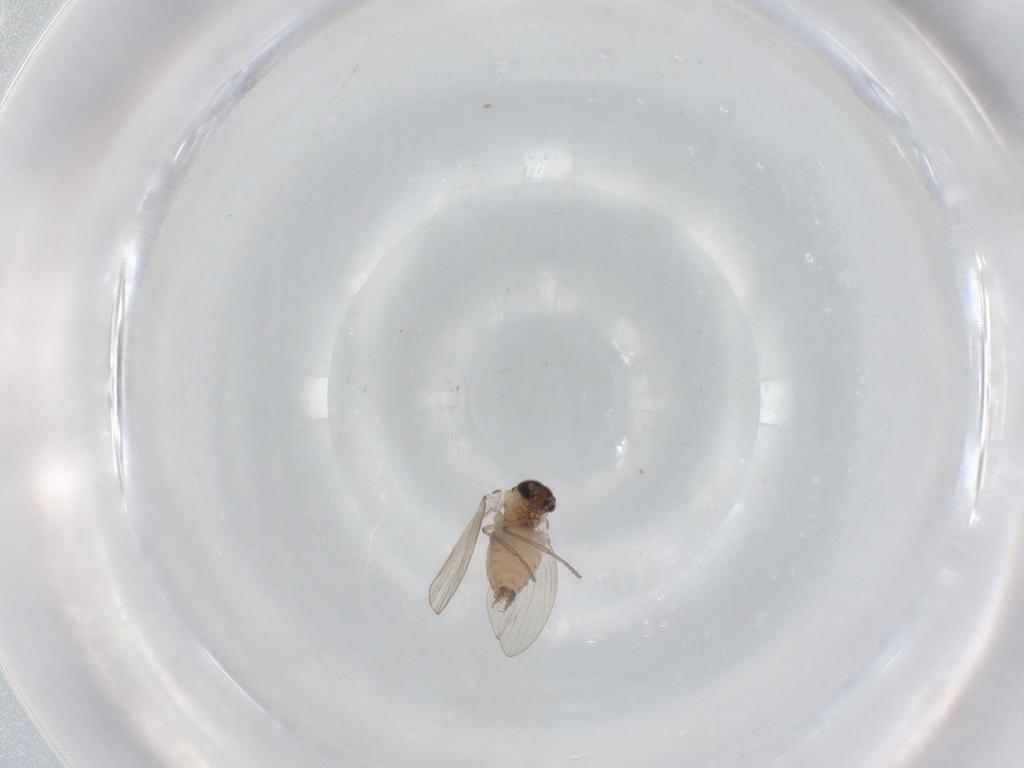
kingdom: Animalia
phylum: Arthropoda
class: Insecta
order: Diptera
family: Psychodidae
